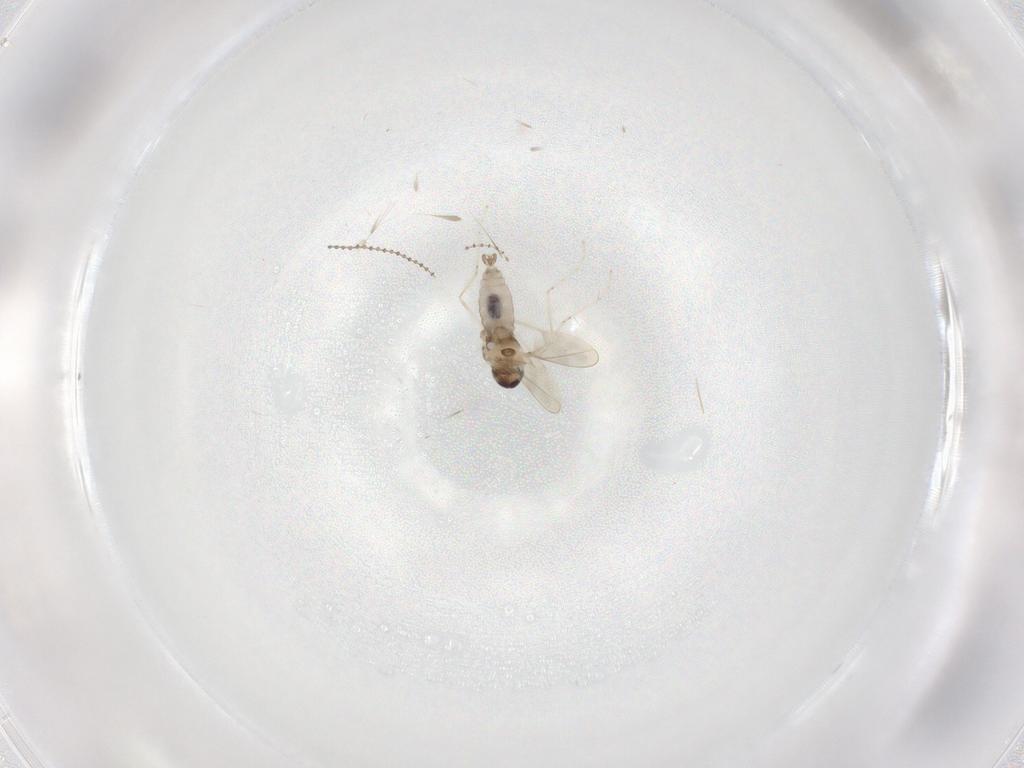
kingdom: Animalia
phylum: Arthropoda
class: Insecta
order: Diptera
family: Cecidomyiidae
